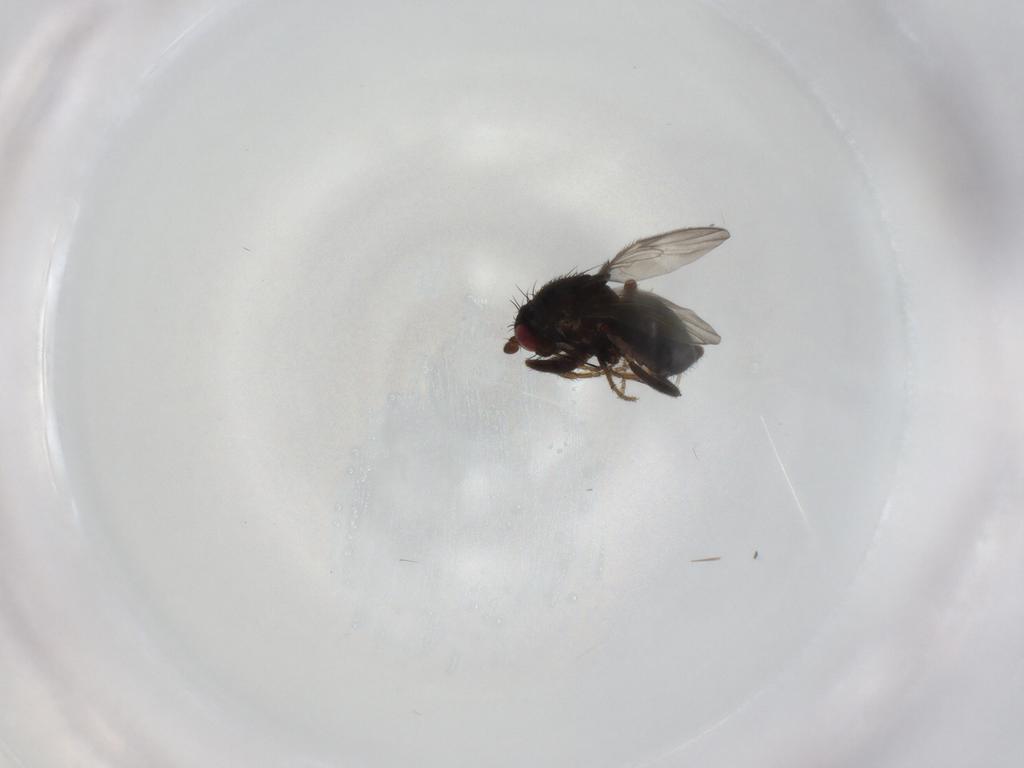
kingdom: Animalia
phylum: Arthropoda
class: Insecta
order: Diptera
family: Sphaeroceridae
